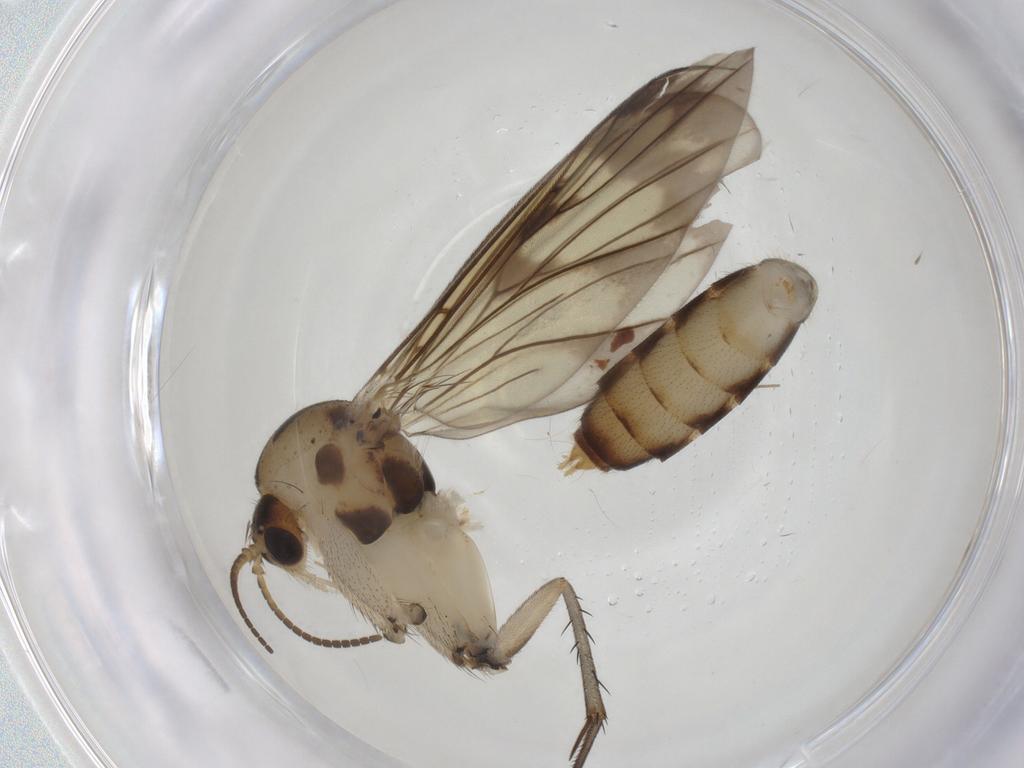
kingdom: Animalia
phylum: Arthropoda
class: Insecta
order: Diptera
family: Mycetophilidae
